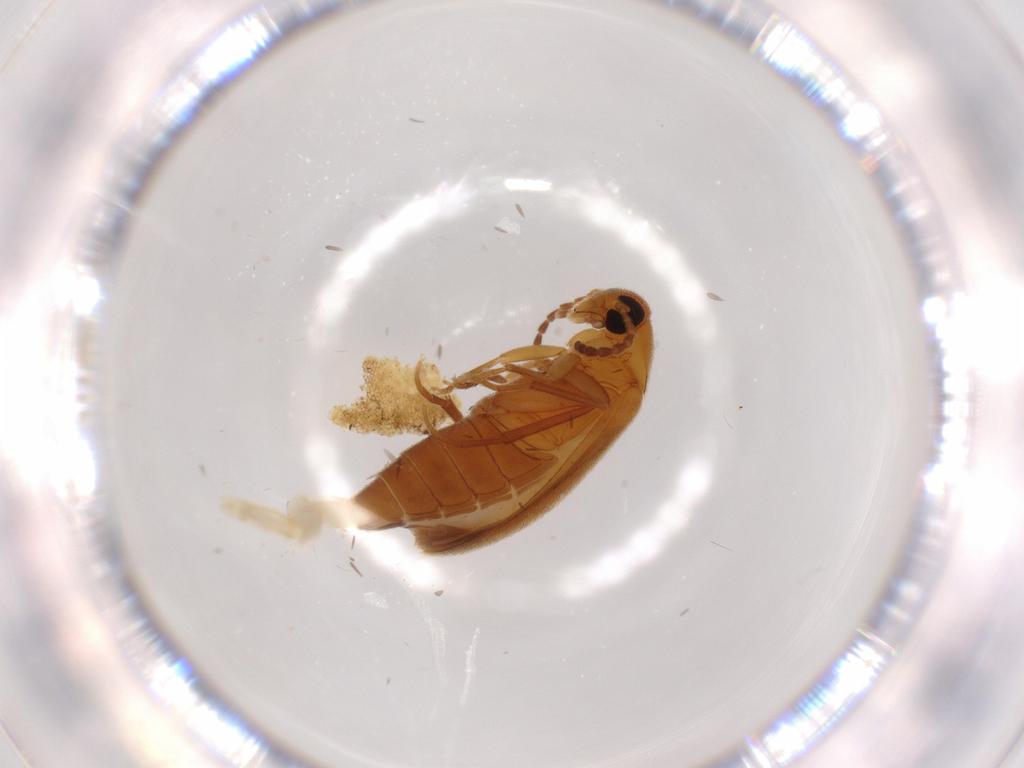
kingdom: Animalia
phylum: Arthropoda
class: Insecta
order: Coleoptera
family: Scraptiidae
